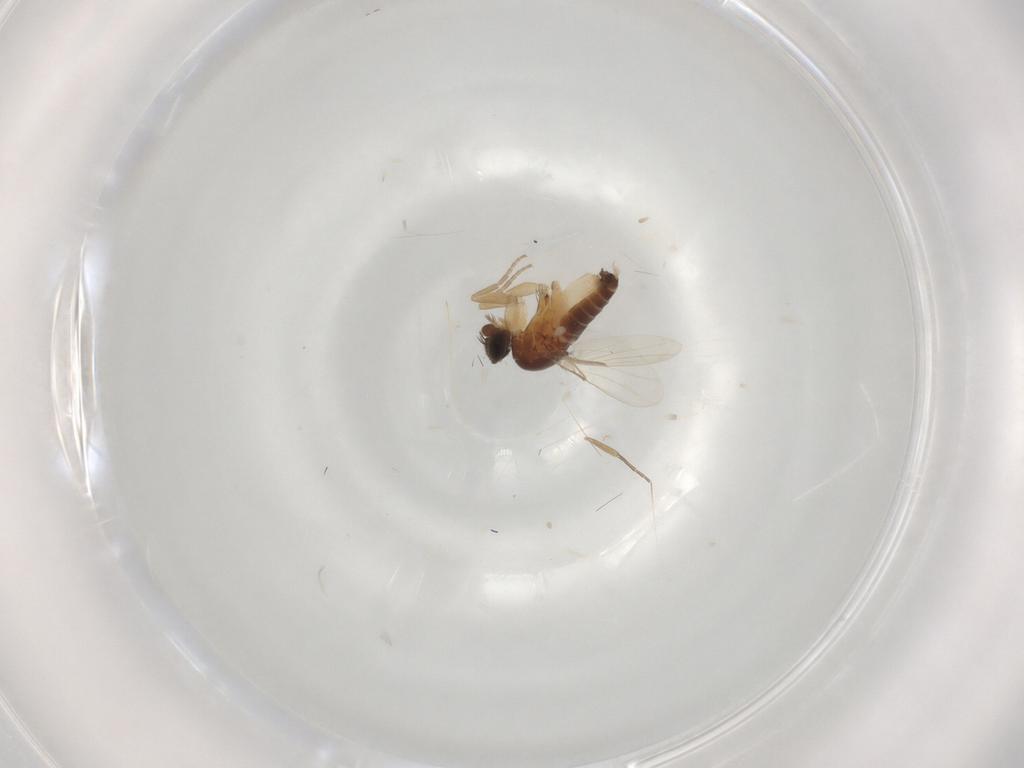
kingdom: Animalia
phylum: Arthropoda
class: Insecta
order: Diptera
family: Phoridae
